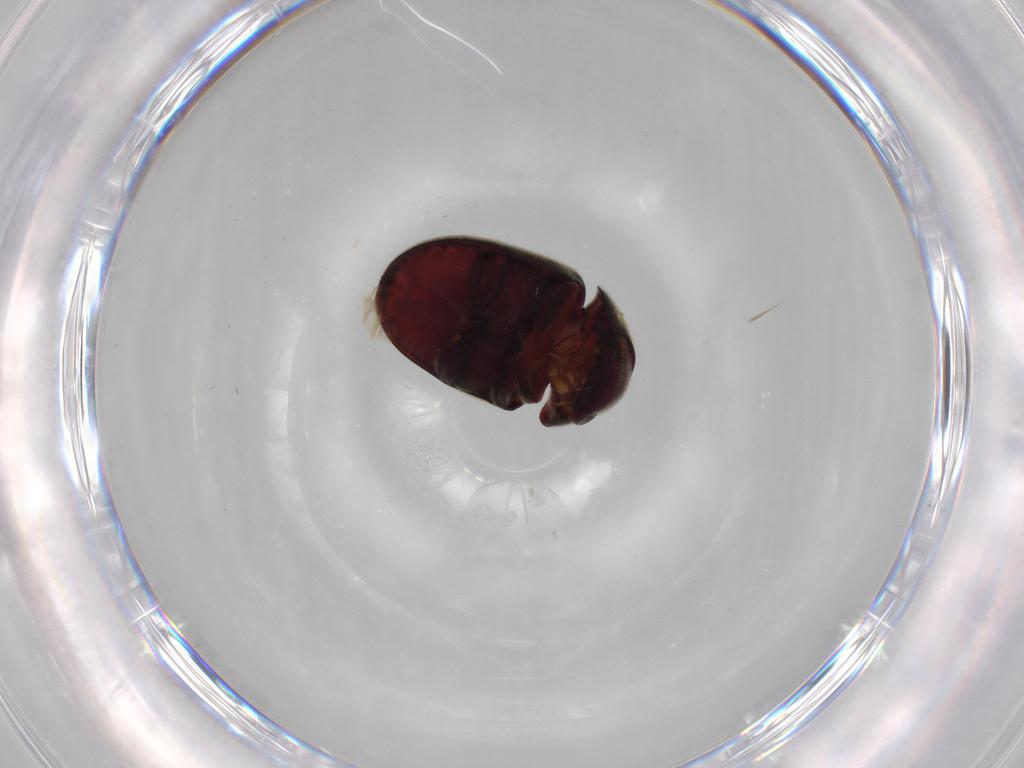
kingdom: Animalia
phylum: Arthropoda
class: Insecta
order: Coleoptera
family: Ptinidae
